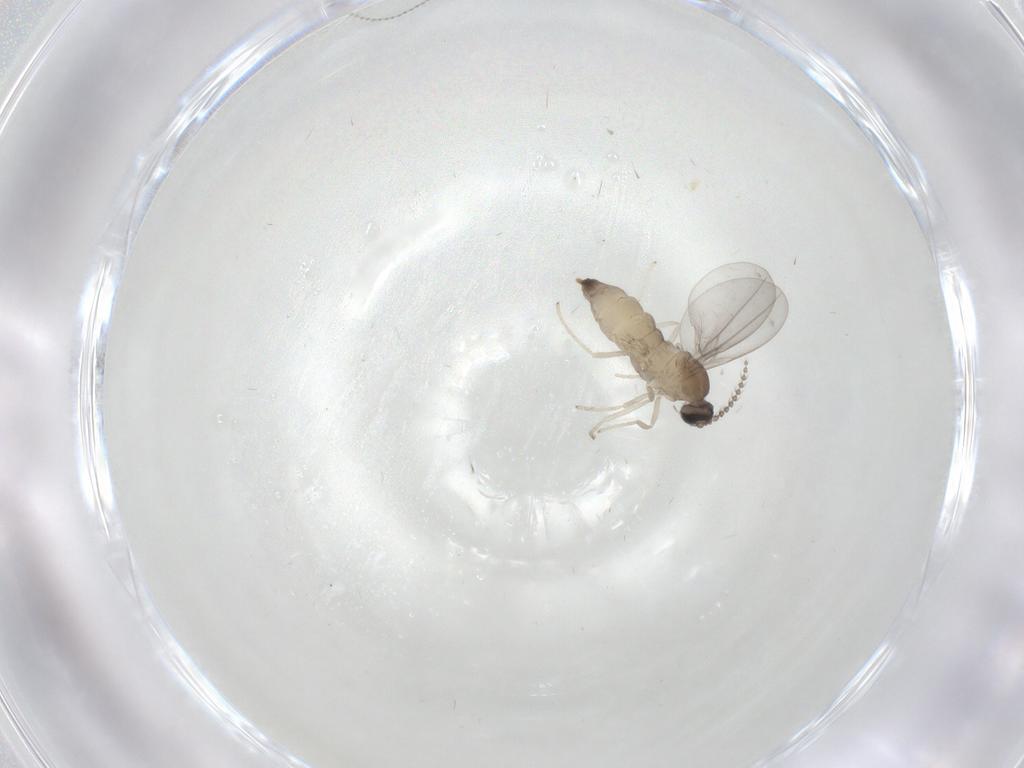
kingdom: Animalia
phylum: Arthropoda
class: Insecta
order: Diptera
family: Cecidomyiidae
